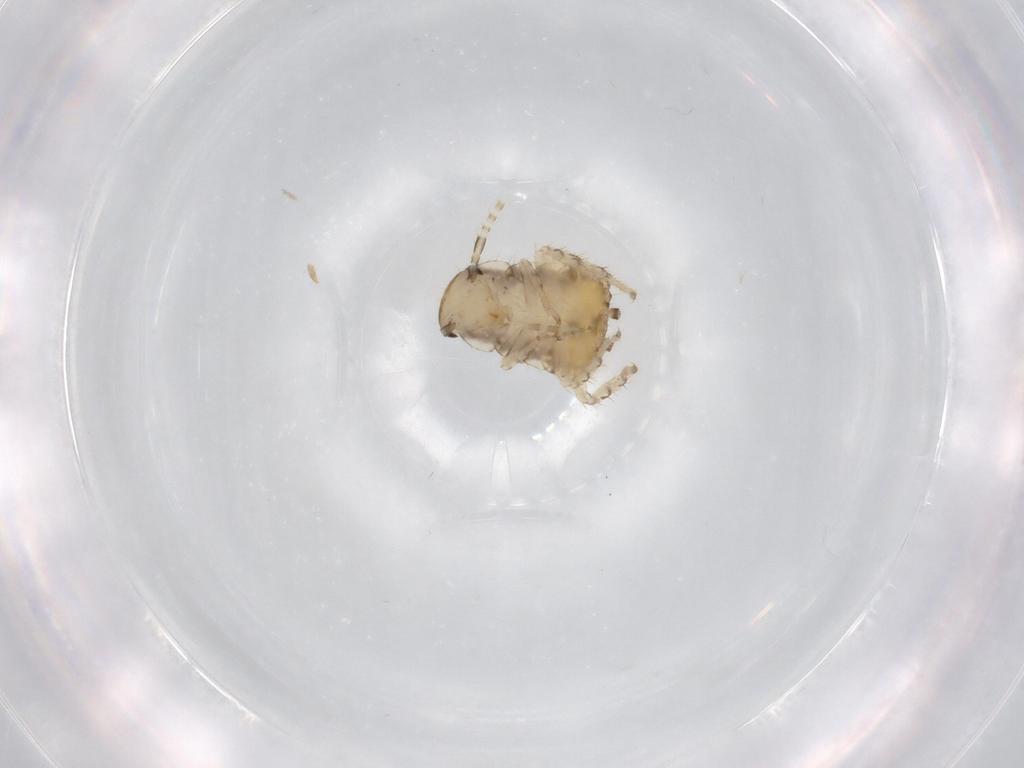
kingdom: Animalia
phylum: Arthropoda
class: Insecta
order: Blattodea
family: Ectobiidae
